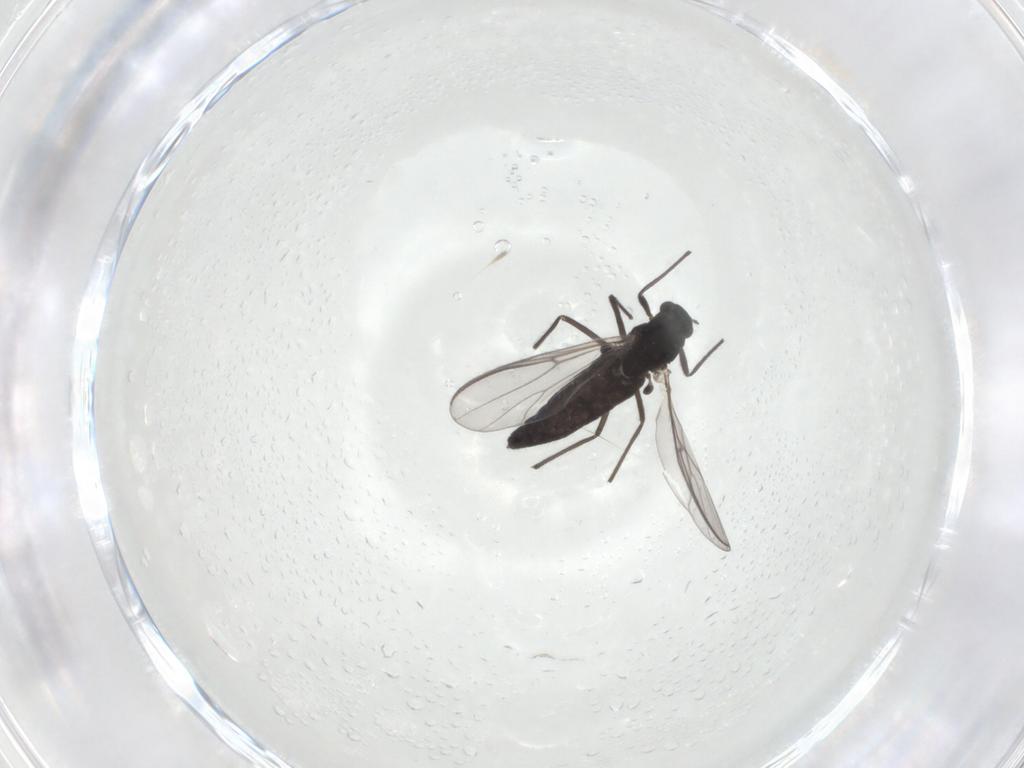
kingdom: Animalia
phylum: Arthropoda
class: Insecta
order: Diptera
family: Chironomidae
